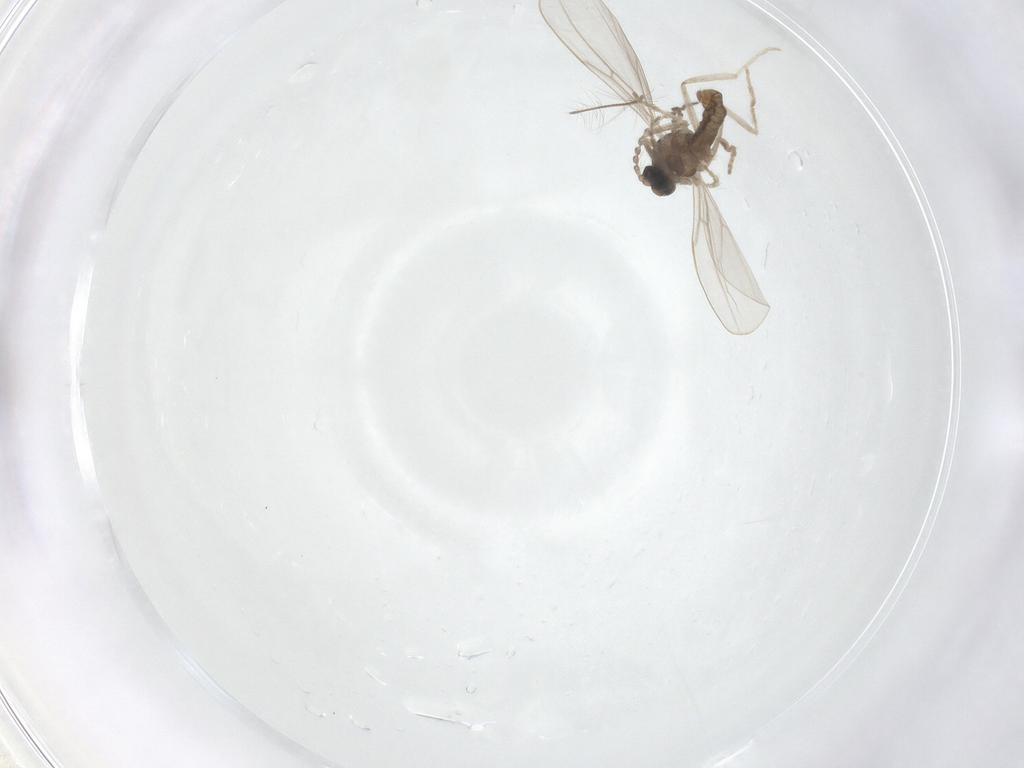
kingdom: Animalia
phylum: Arthropoda
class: Insecta
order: Diptera
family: Cecidomyiidae
